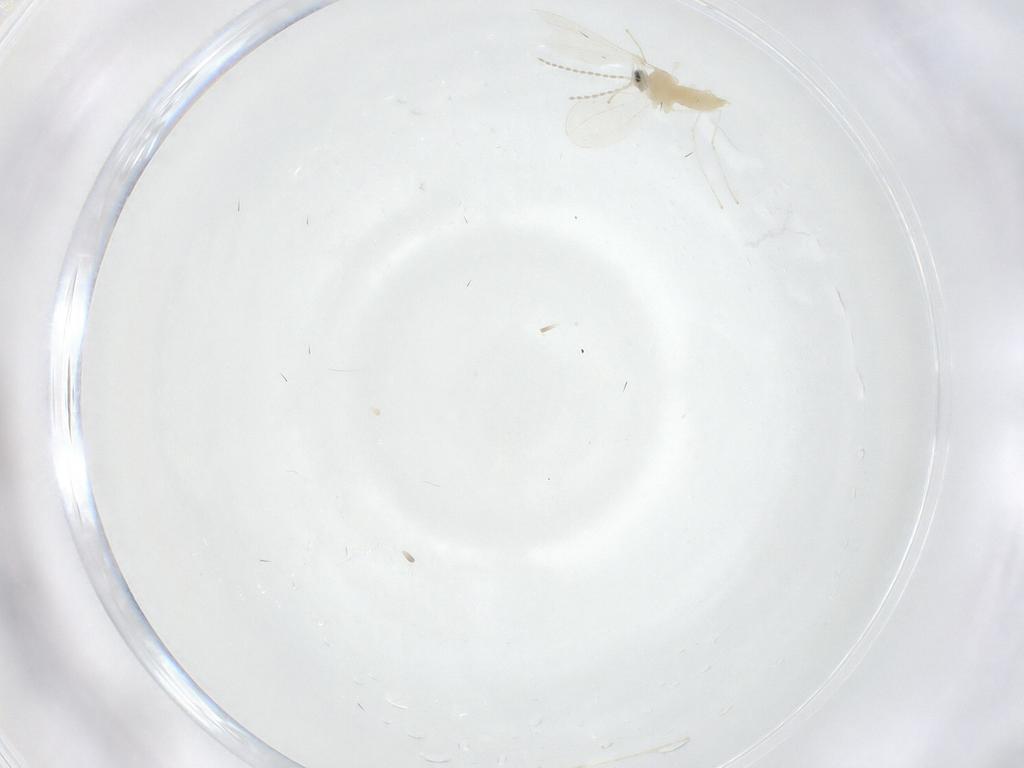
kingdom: Animalia
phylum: Arthropoda
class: Insecta
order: Diptera
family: Cecidomyiidae
